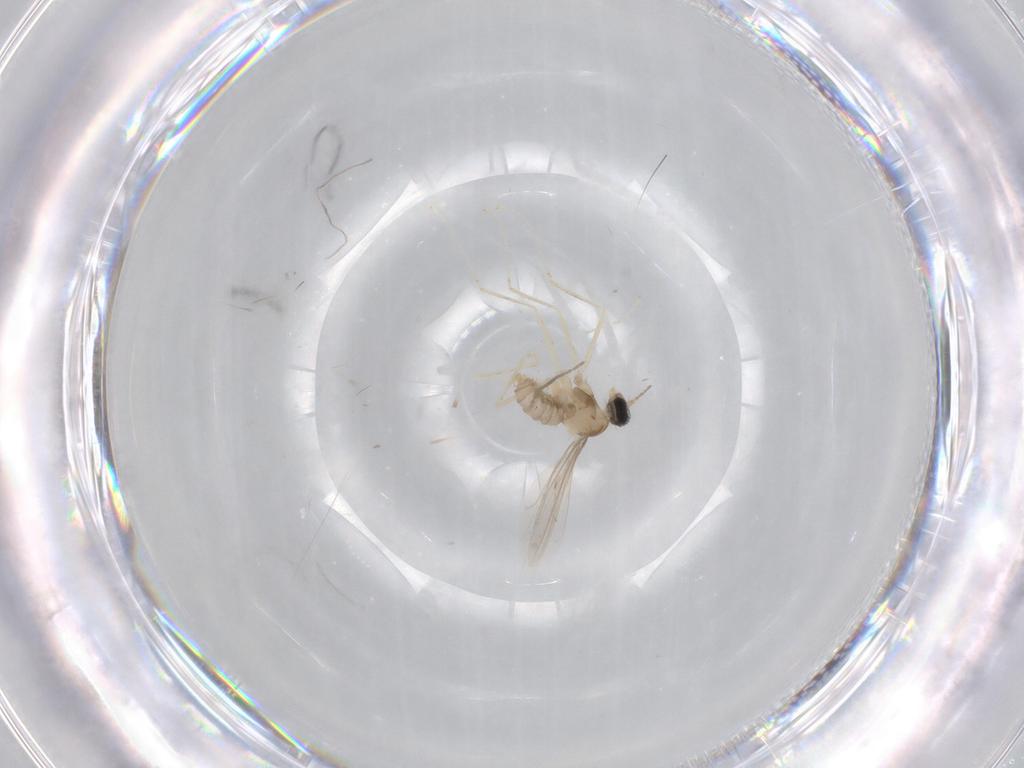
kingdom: Animalia
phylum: Arthropoda
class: Insecta
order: Diptera
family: Cecidomyiidae
